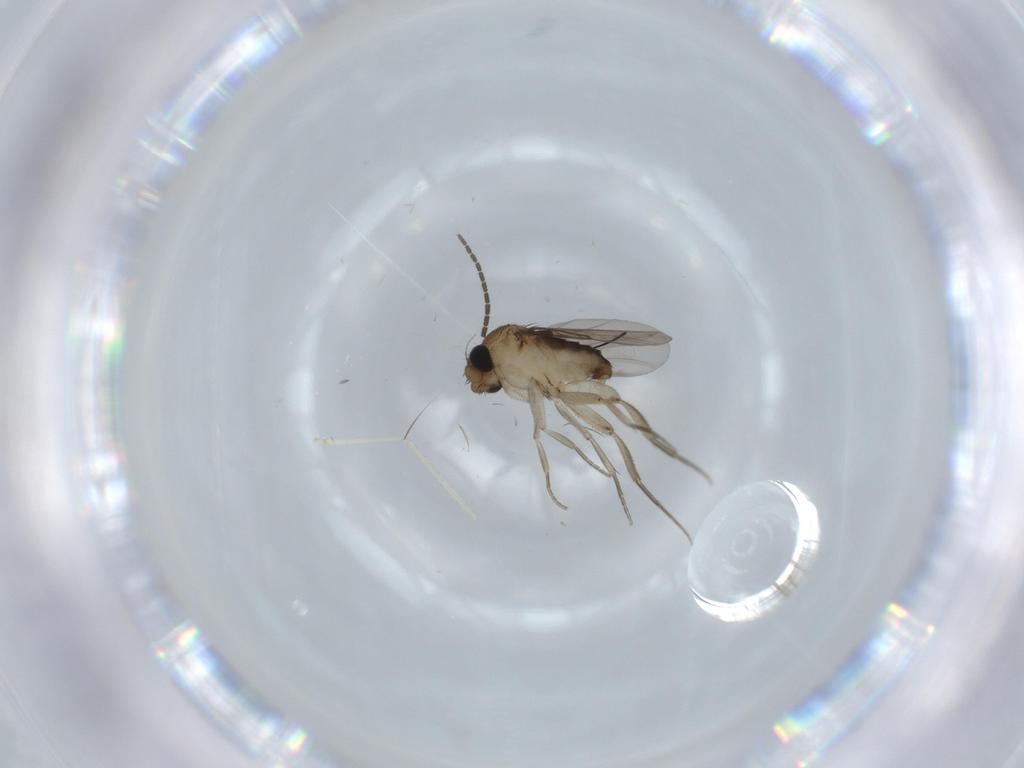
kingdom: Animalia
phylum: Arthropoda
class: Insecta
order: Diptera
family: Phoridae
